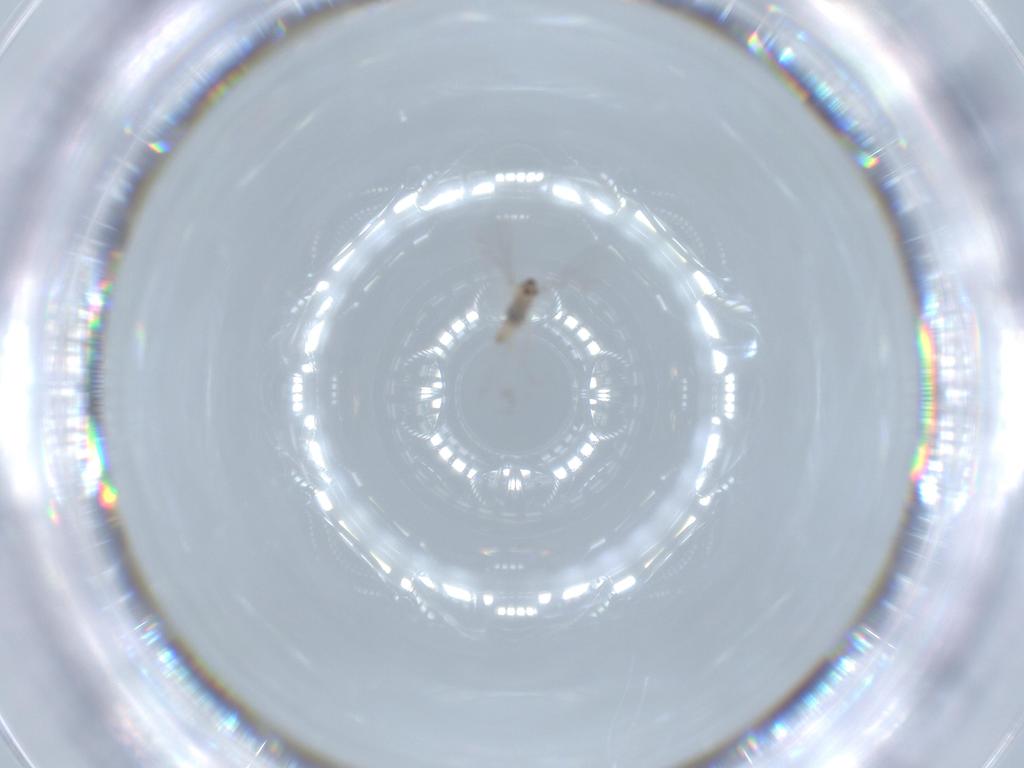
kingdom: Animalia
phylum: Arthropoda
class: Insecta
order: Diptera
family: Cecidomyiidae
